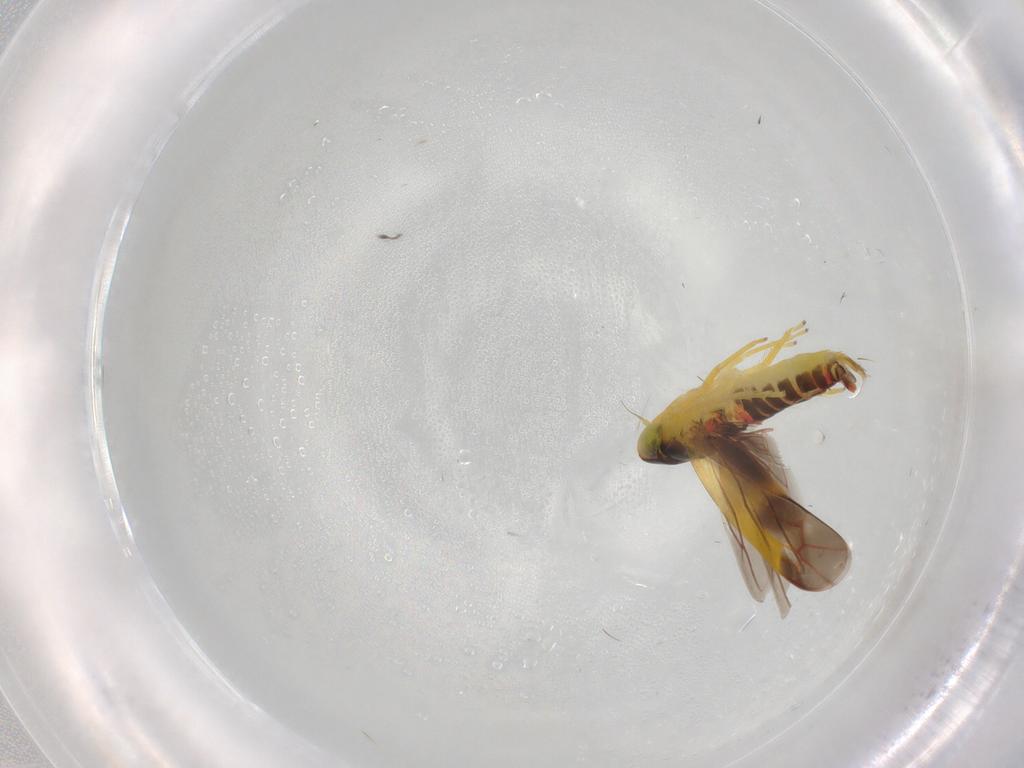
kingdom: Animalia
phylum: Arthropoda
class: Insecta
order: Hemiptera
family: Cicadellidae
